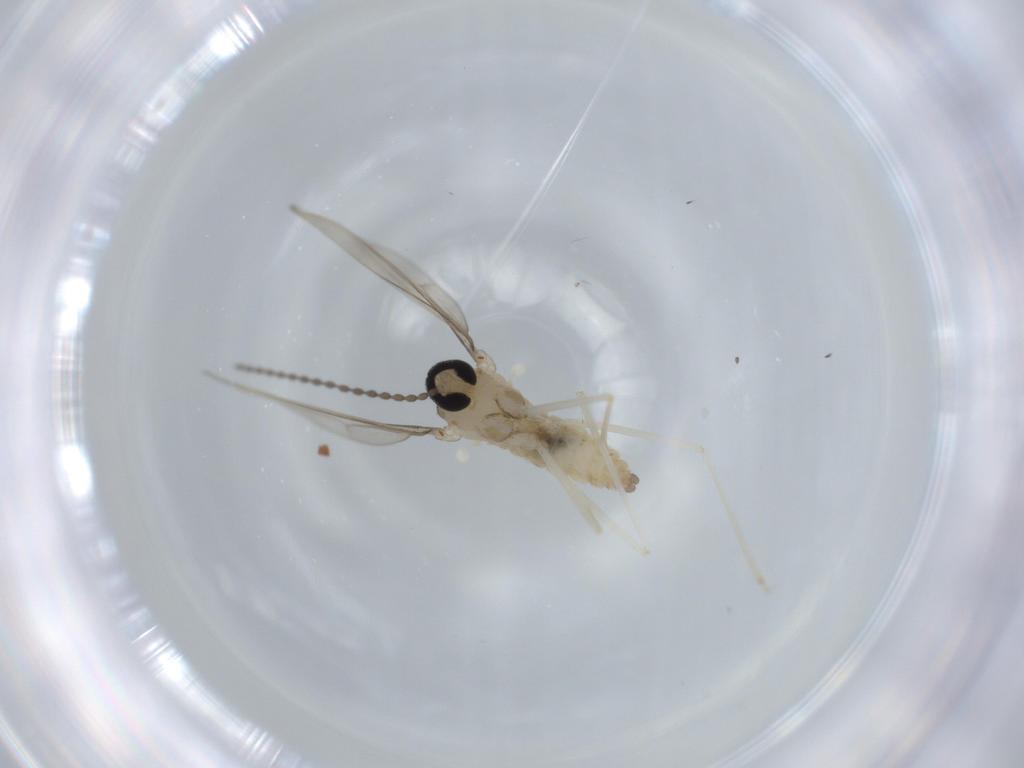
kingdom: Animalia
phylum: Arthropoda
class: Insecta
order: Diptera
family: Cecidomyiidae
